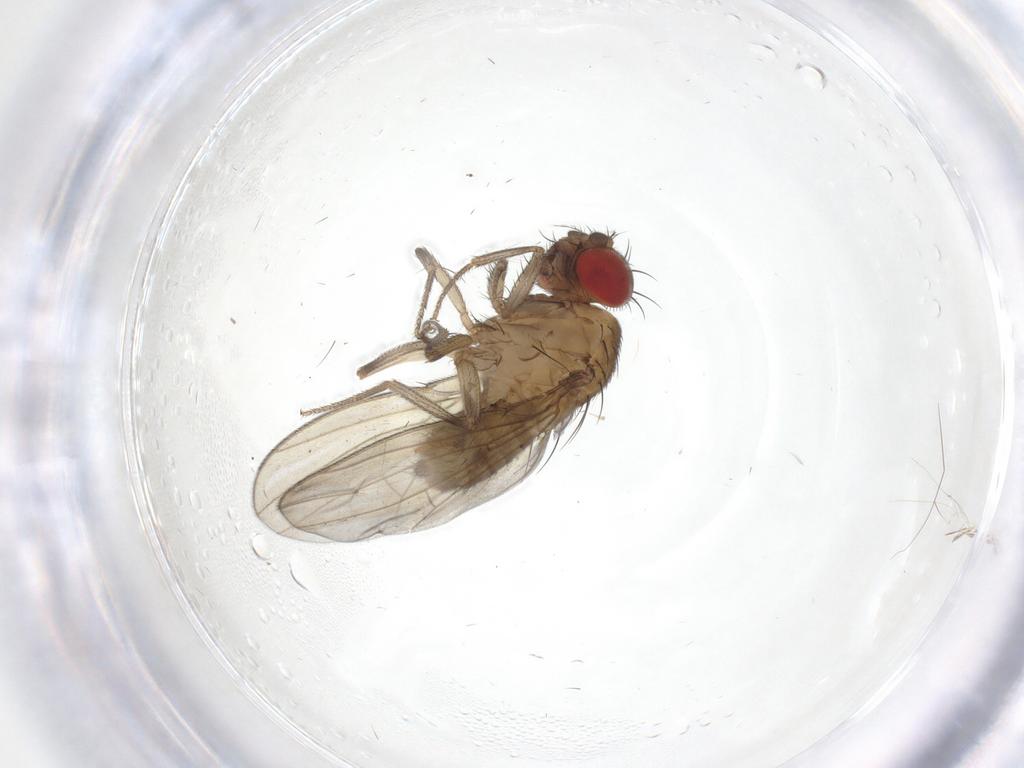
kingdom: Animalia
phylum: Arthropoda
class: Insecta
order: Diptera
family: Drosophilidae
